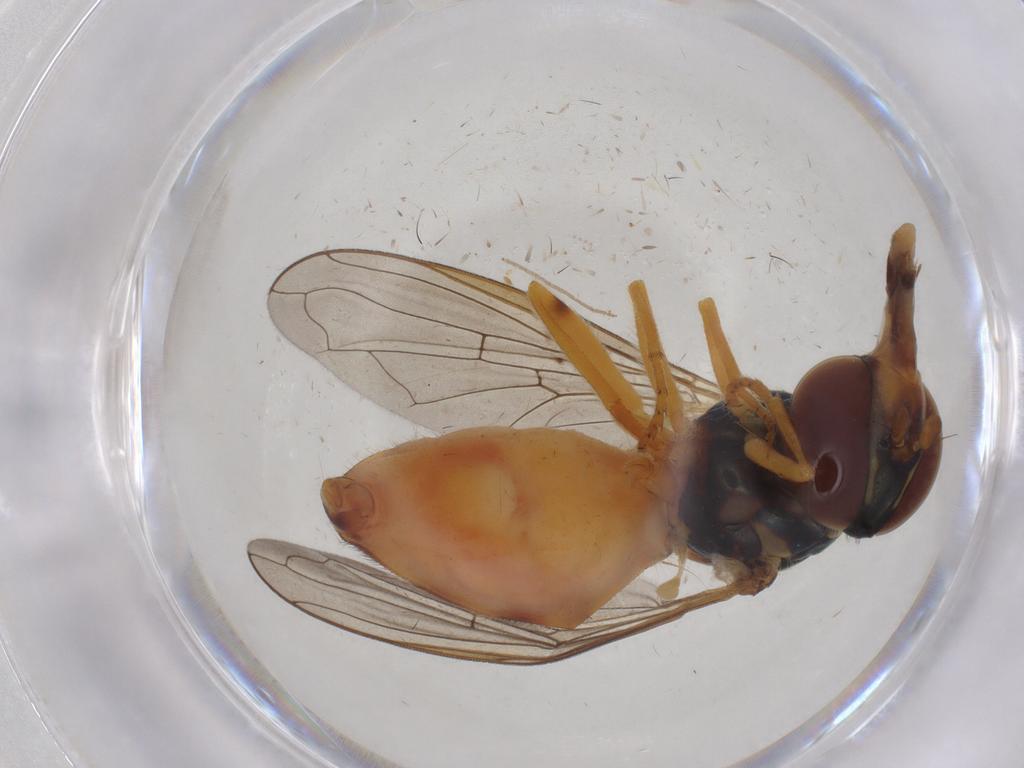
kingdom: Animalia
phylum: Arthropoda
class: Insecta
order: Diptera
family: Syrphidae
